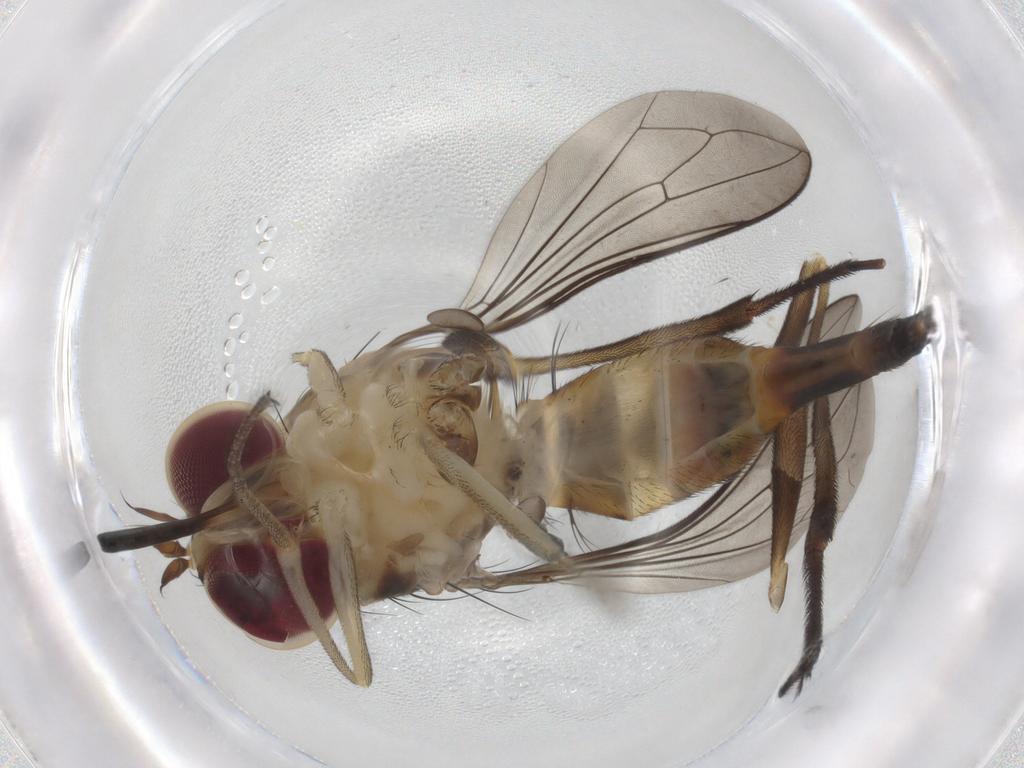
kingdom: Animalia
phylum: Arthropoda
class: Insecta
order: Diptera
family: Conopidae
